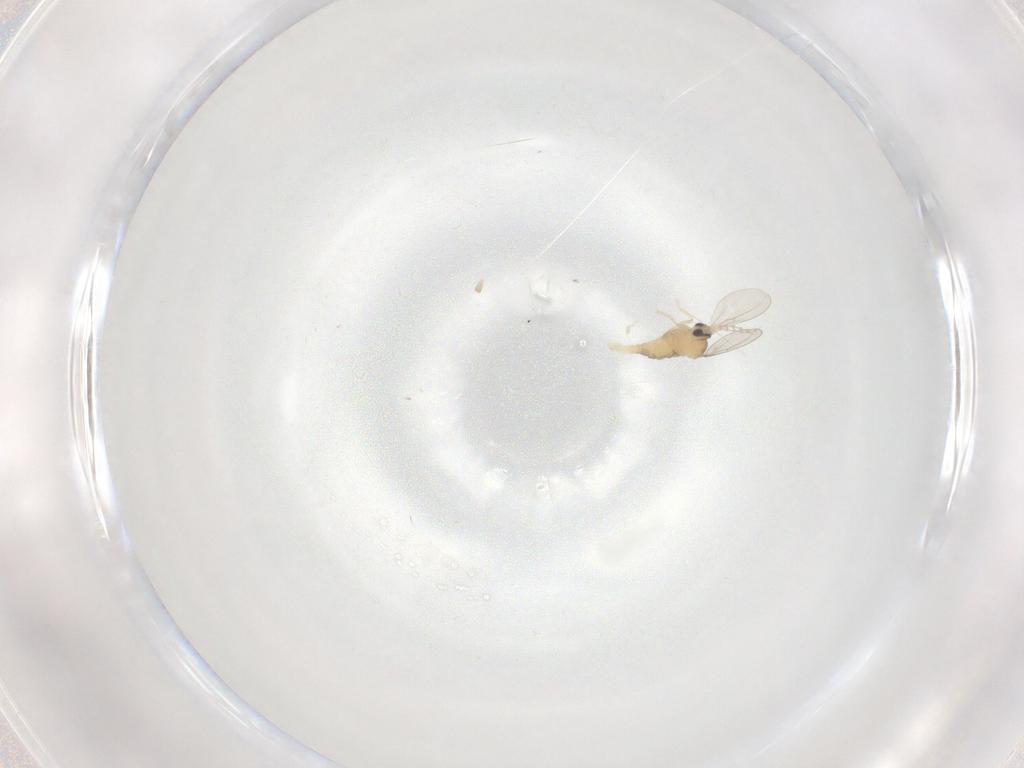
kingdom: Animalia
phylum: Arthropoda
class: Insecta
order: Diptera
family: Cecidomyiidae
